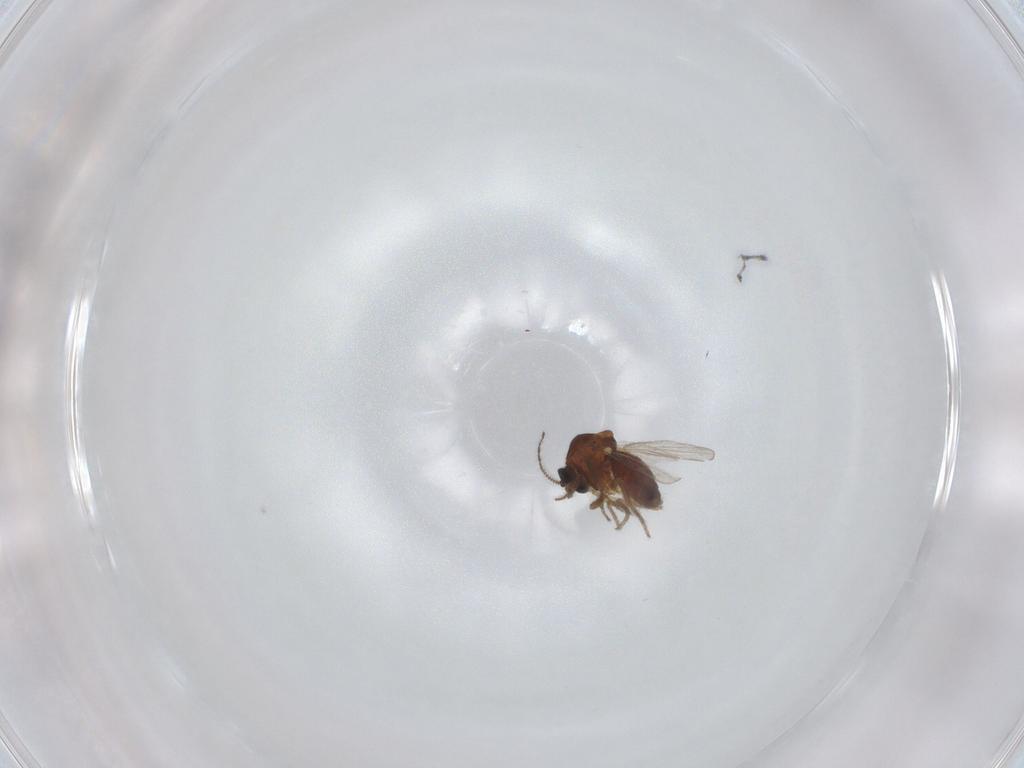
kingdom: Animalia
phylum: Arthropoda
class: Insecta
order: Diptera
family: Ceratopogonidae
